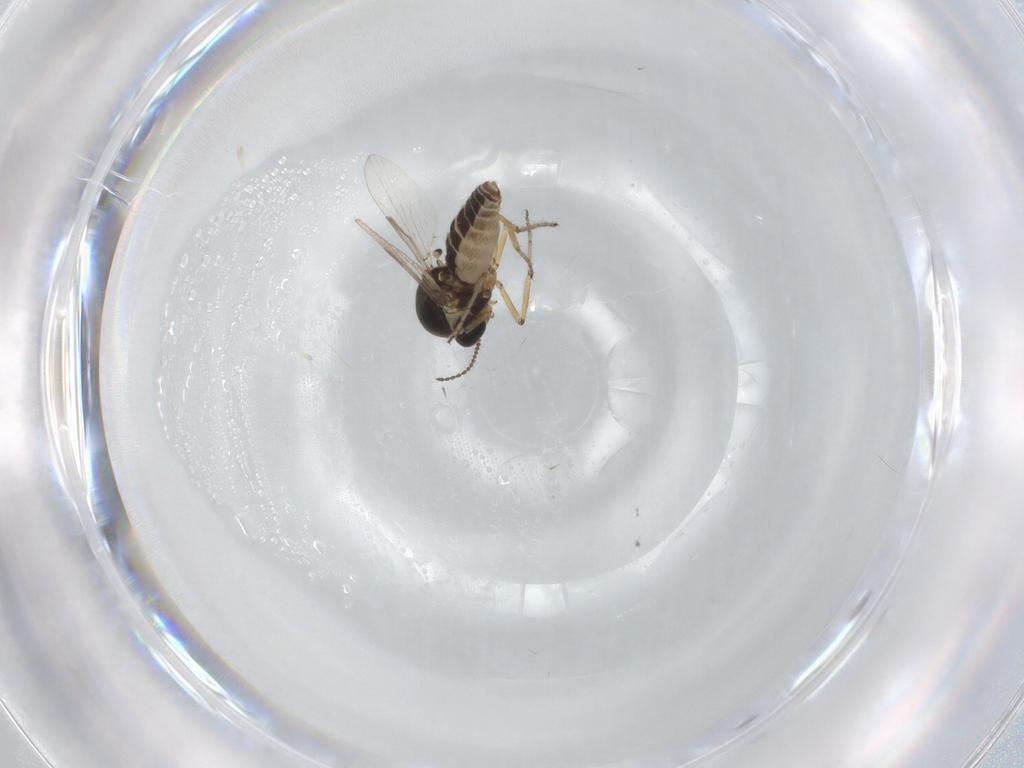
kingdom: Animalia
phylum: Arthropoda
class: Insecta
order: Diptera
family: Ceratopogonidae
